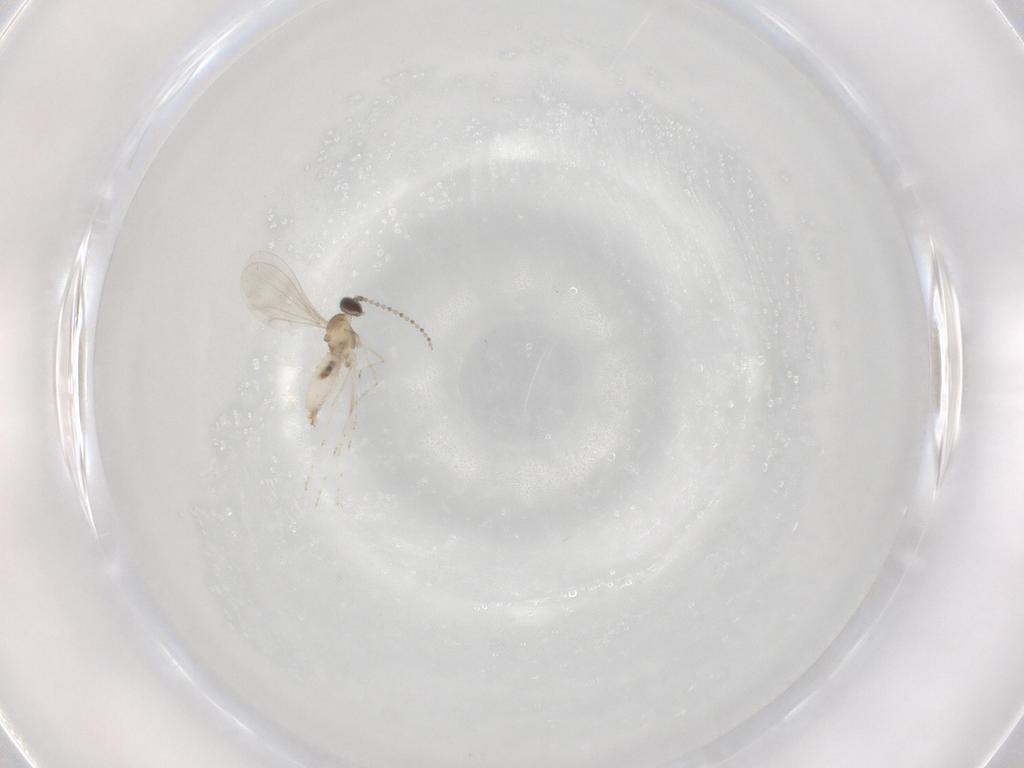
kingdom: Animalia
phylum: Arthropoda
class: Insecta
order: Diptera
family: Cecidomyiidae
